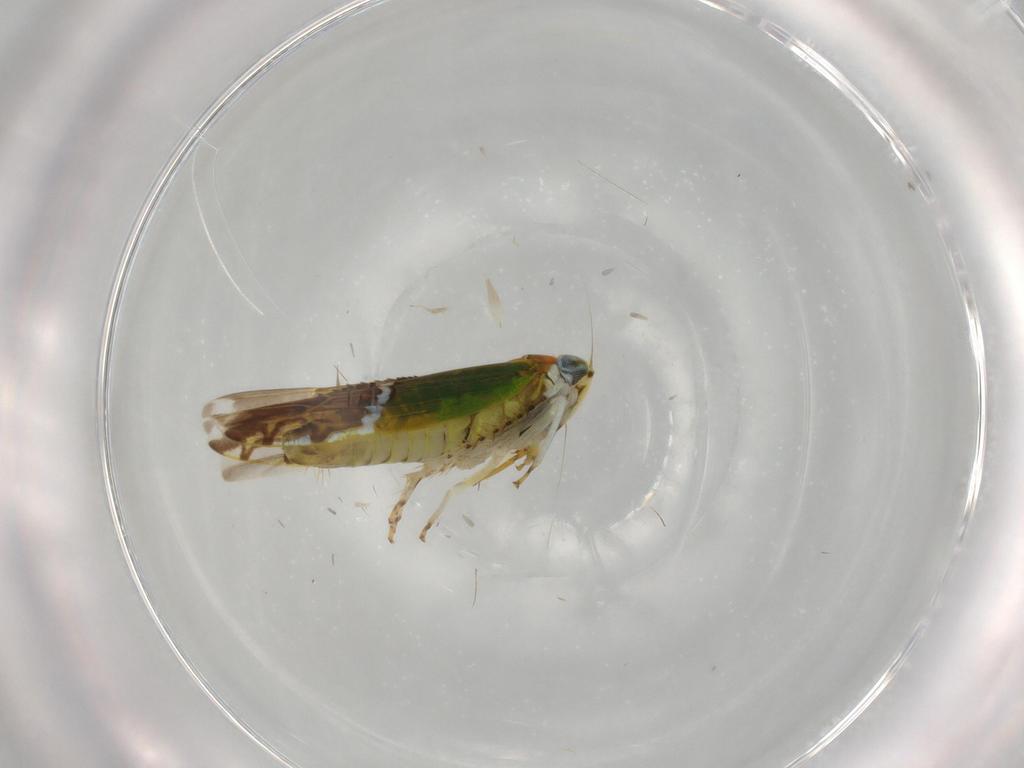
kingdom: Animalia
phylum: Arthropoda
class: Insecta
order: Hemiptera
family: Cicadellidae
